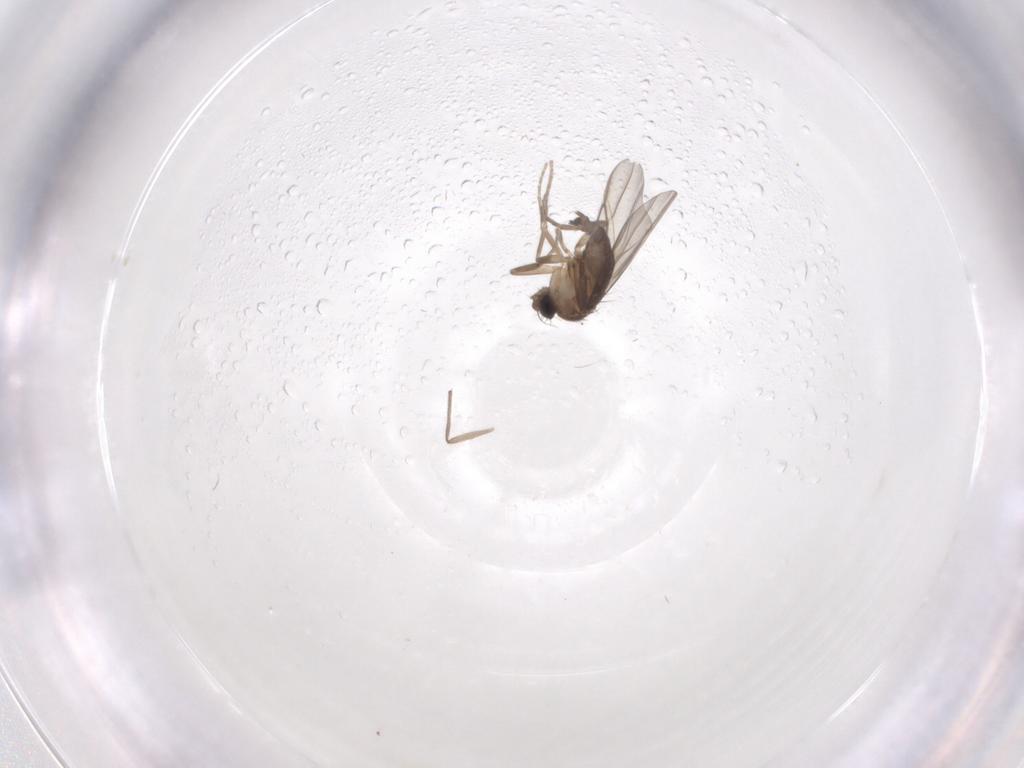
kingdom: Animalia
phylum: Arthropoda
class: Insecta
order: Diptera
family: Phoridae
